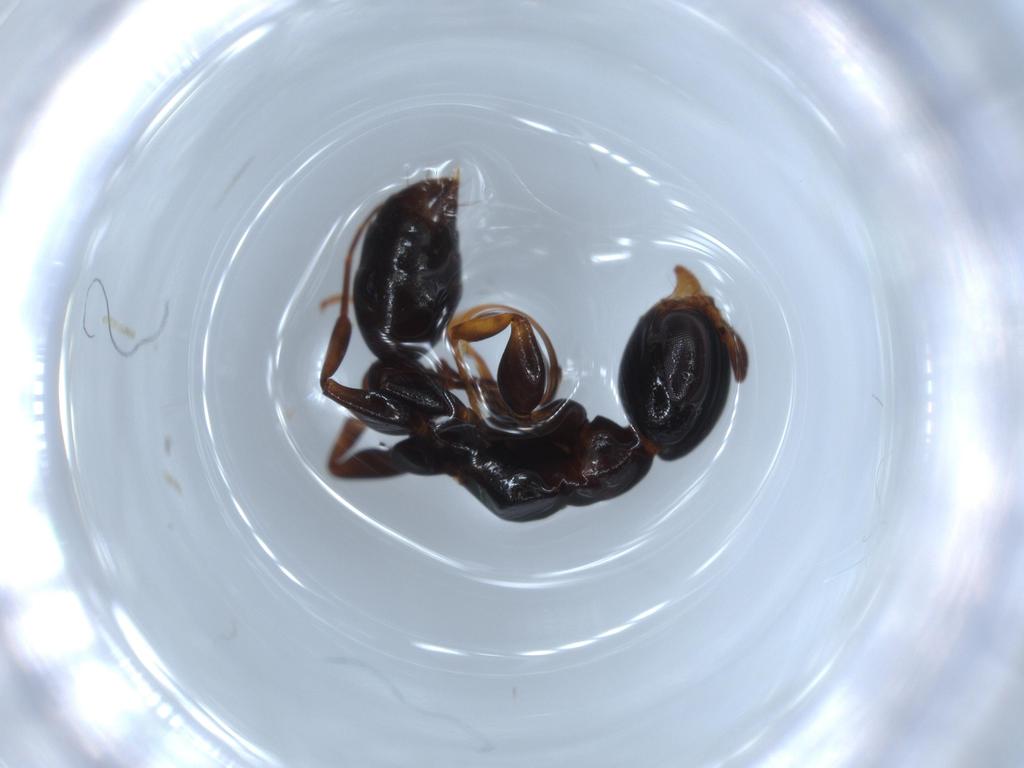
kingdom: Animalia
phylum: Arthropoda
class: Insecta
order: Hymenoptera
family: Formicidae
